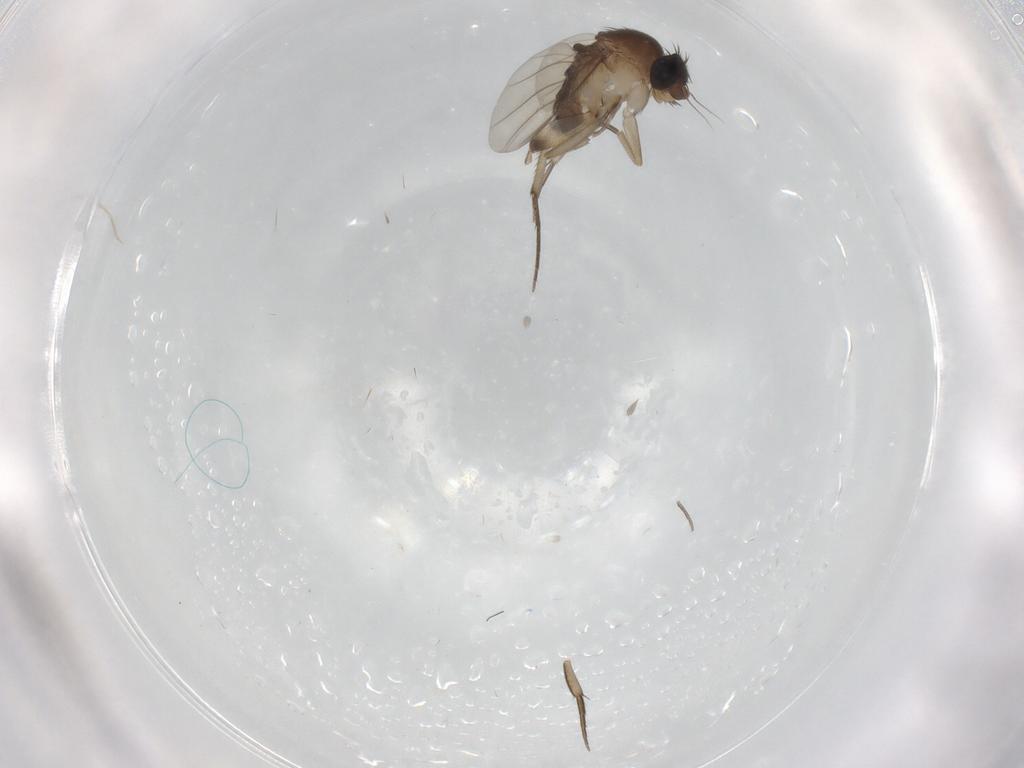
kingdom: Animalia
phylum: Arthropoda
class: Insecta
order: Diptera
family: Phoridae
